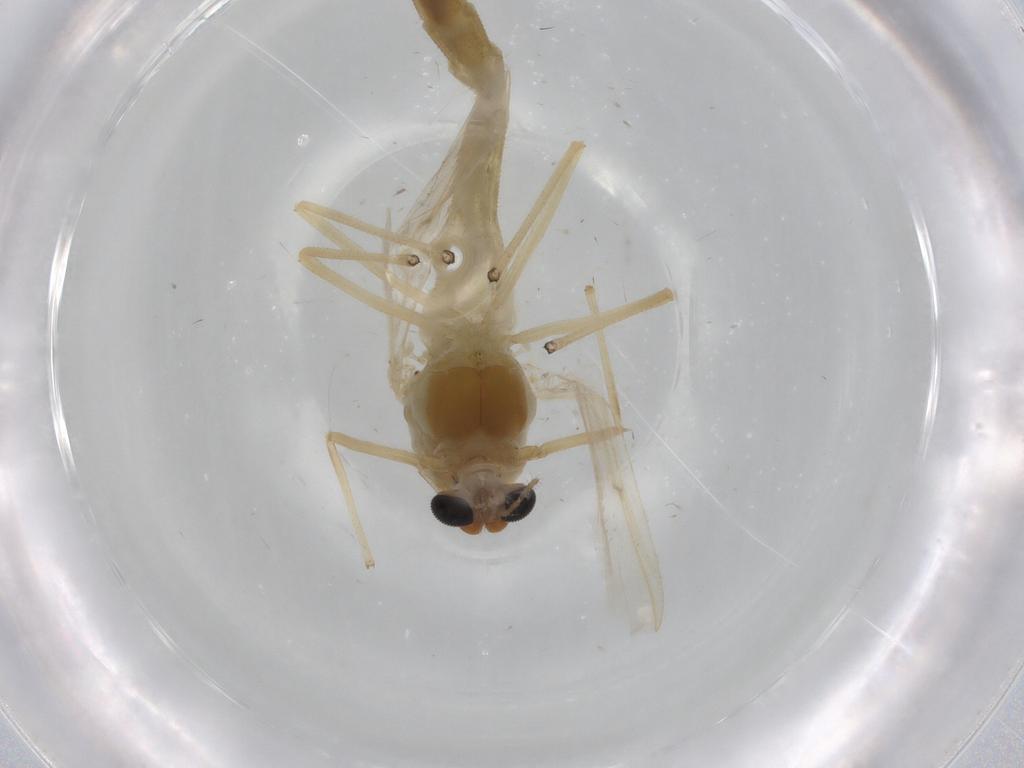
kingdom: Animalia
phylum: Arthropoda
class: Insecta
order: Diptera
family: Chironomidae
